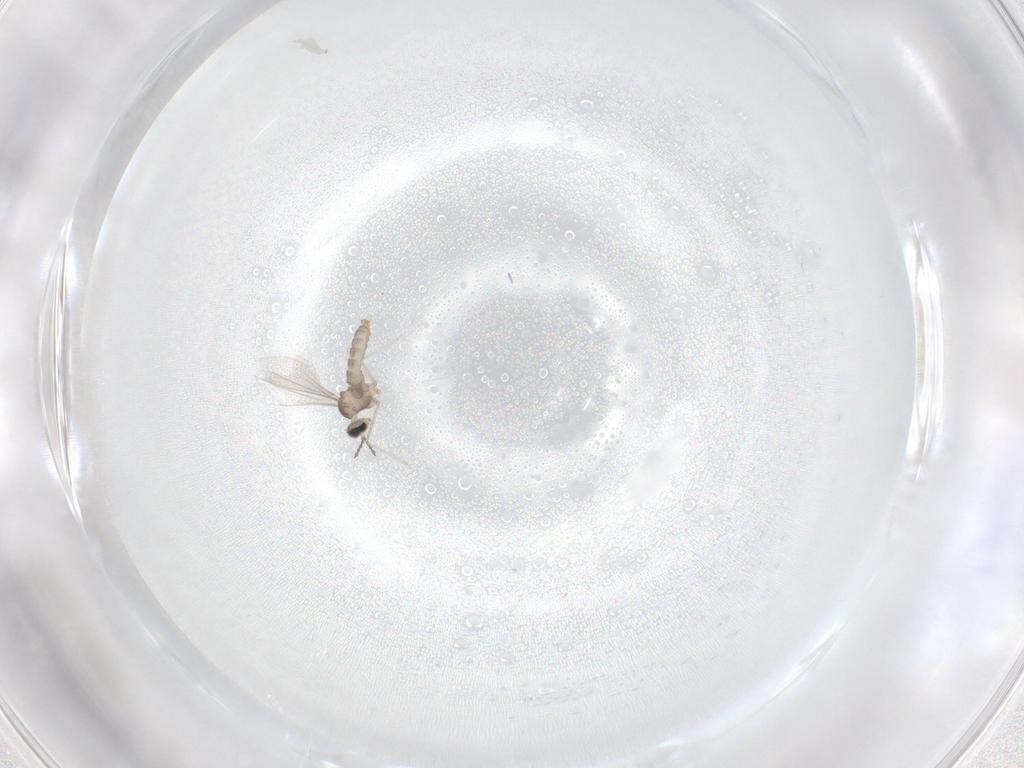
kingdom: Animalia
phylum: Arthropoda
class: Insecta
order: Diptera
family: Cecidomyiidae
